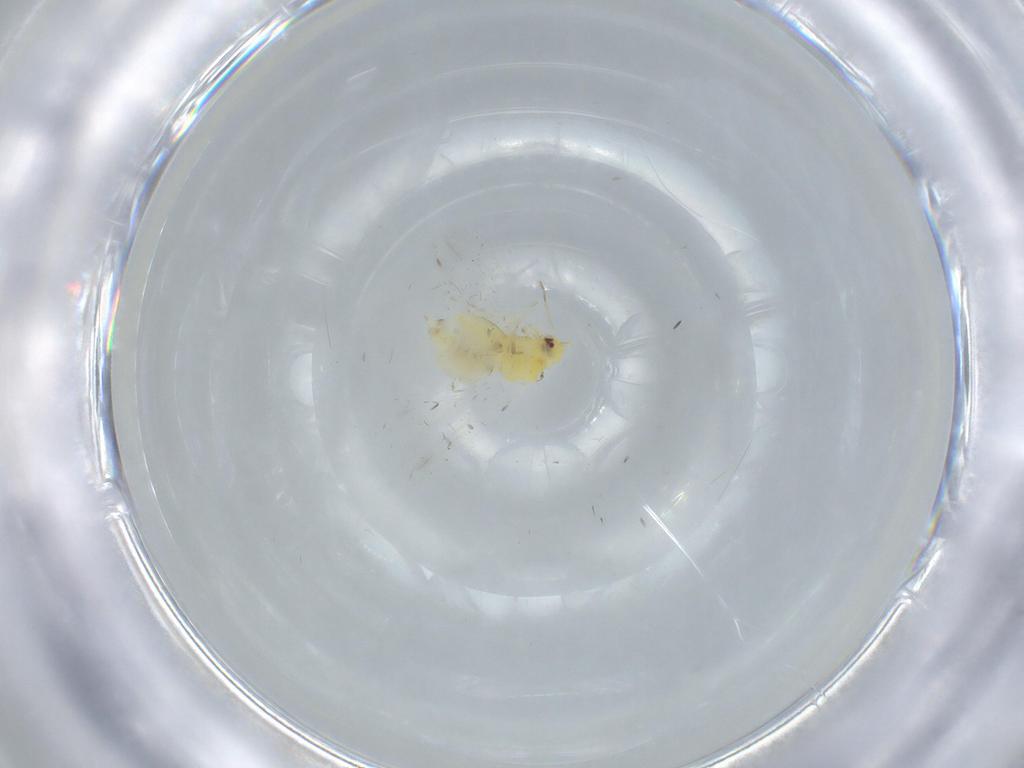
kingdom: Animalia
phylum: Arthropoda
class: Insecta
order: Hemiptera
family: Aleyrodidae
